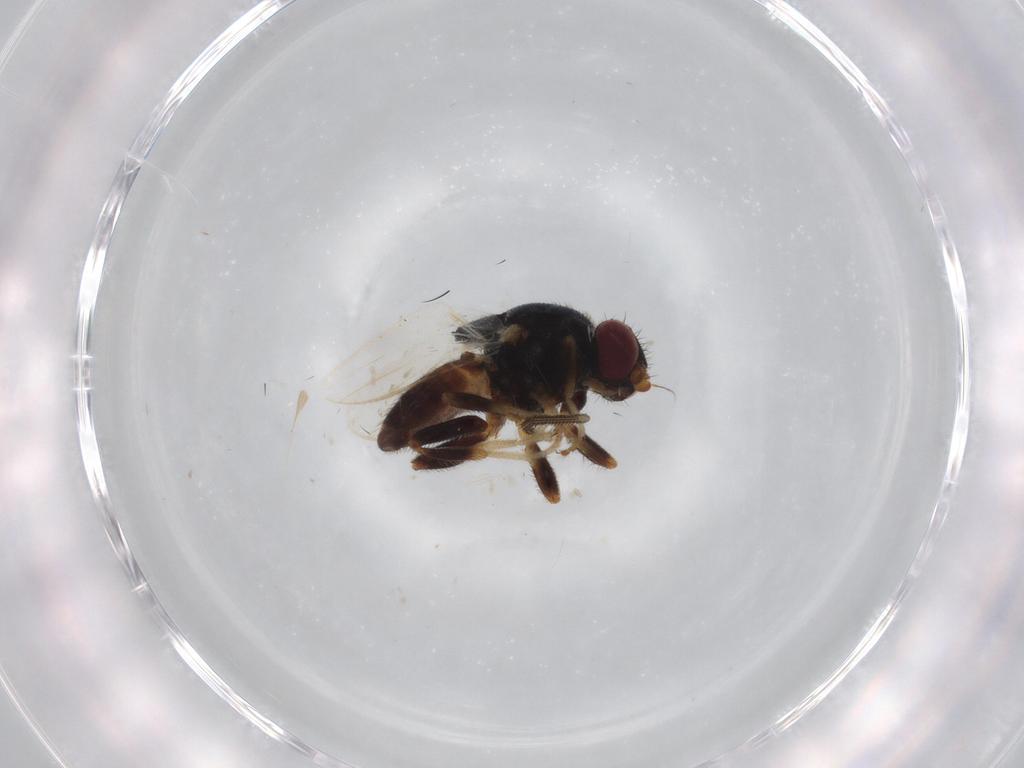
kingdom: Animalia
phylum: Arthropoda
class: Insecta
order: Diptera
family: Chloropidae
